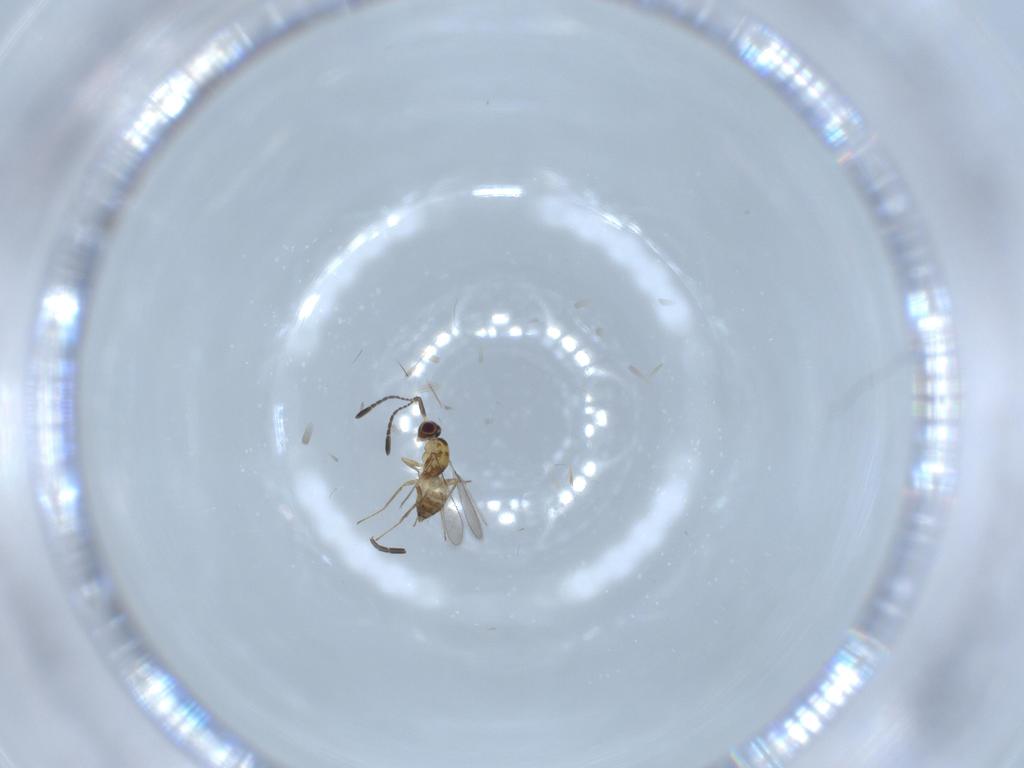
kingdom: Animalia
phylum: Arthropoda
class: Insecta
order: Hymenoptera
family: Mymaridae
